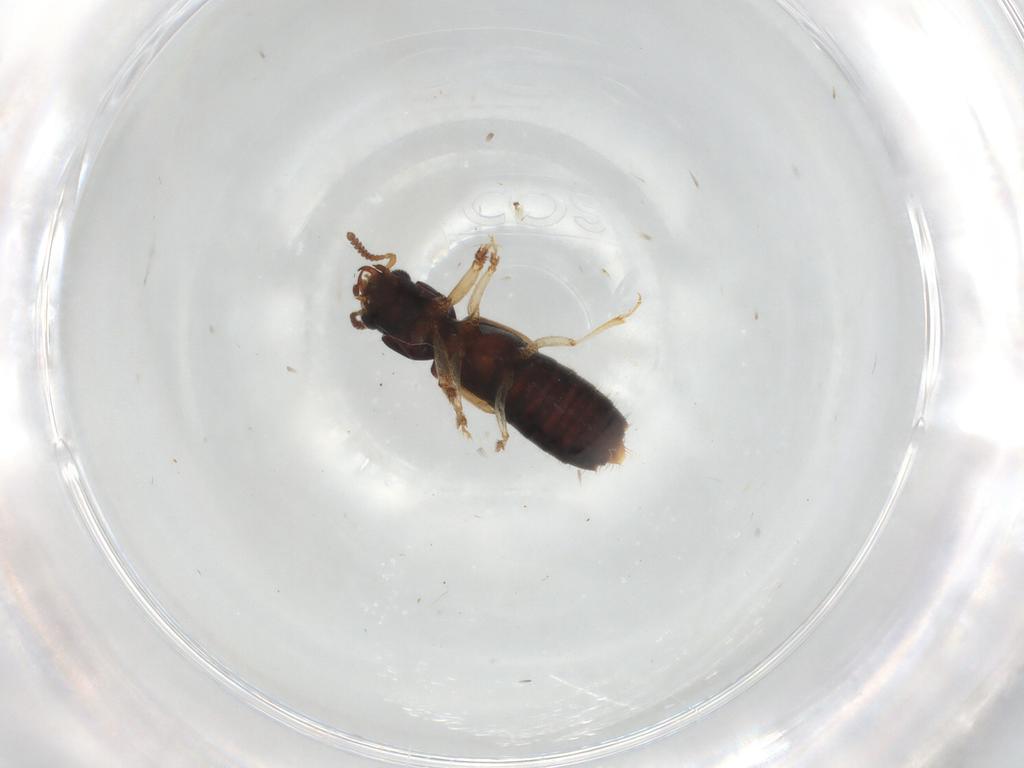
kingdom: Animalia
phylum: Arthropoda
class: Insecta
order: Coleoptera
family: Staphylinidae
